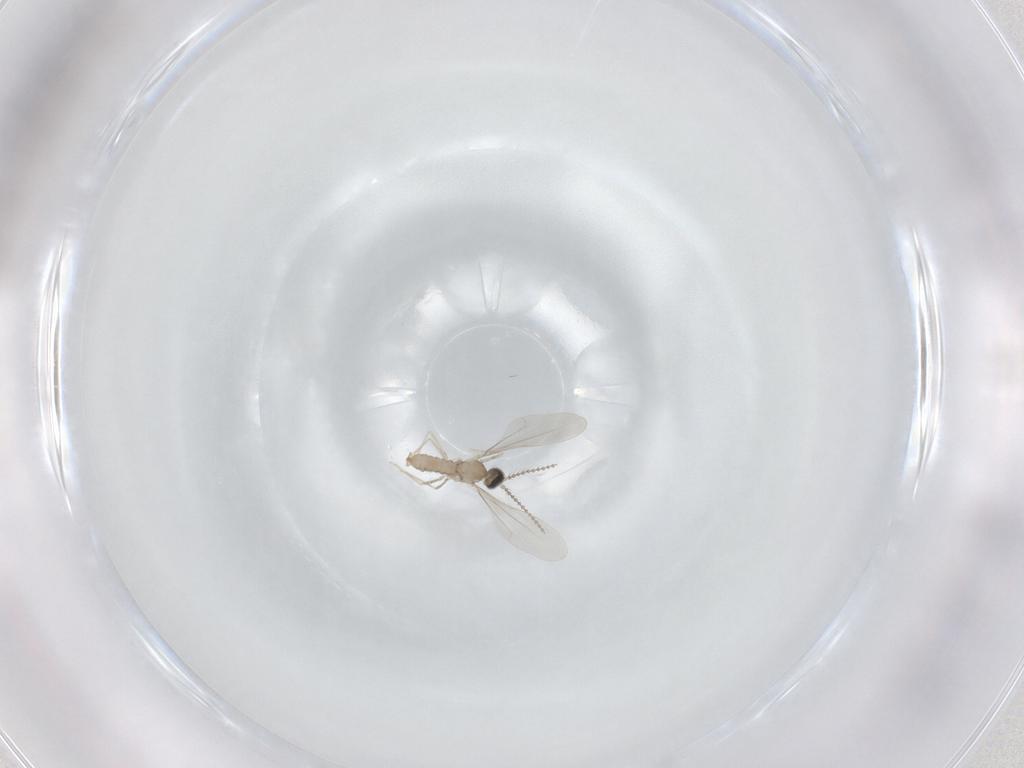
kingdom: Animalia
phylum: Arthropoda
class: Insecta
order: Diptera
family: Cecidomyiidae
